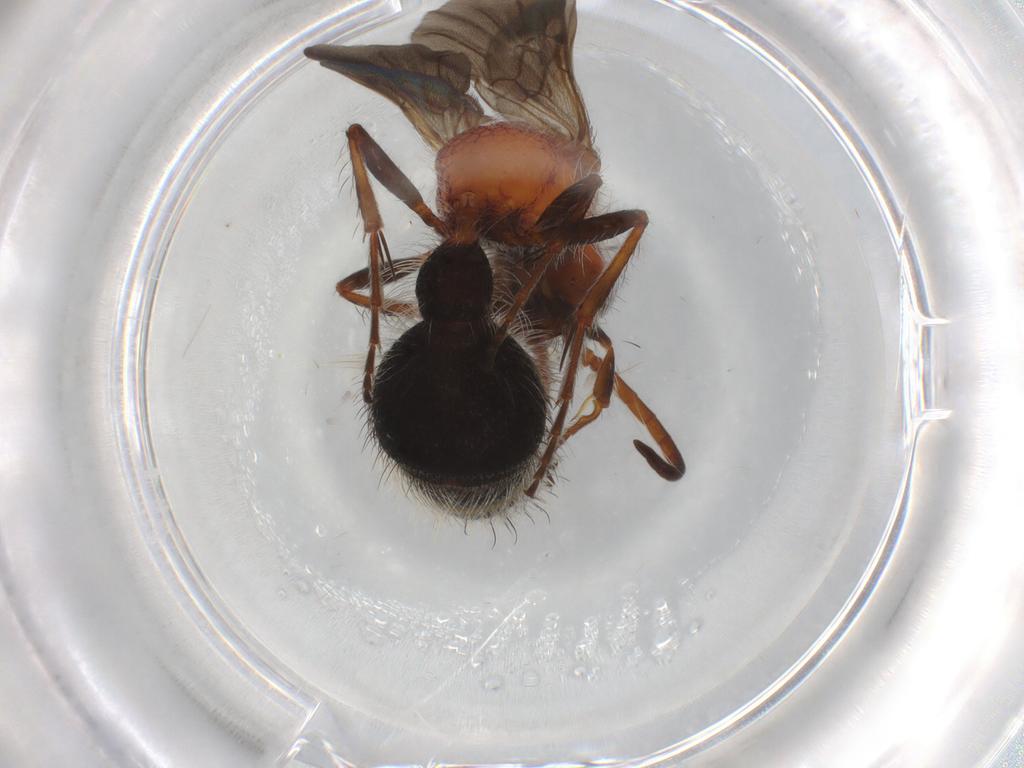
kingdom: Animalia
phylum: Arthropoda
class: Insecta
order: Hymenoptera
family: Mutillidae
